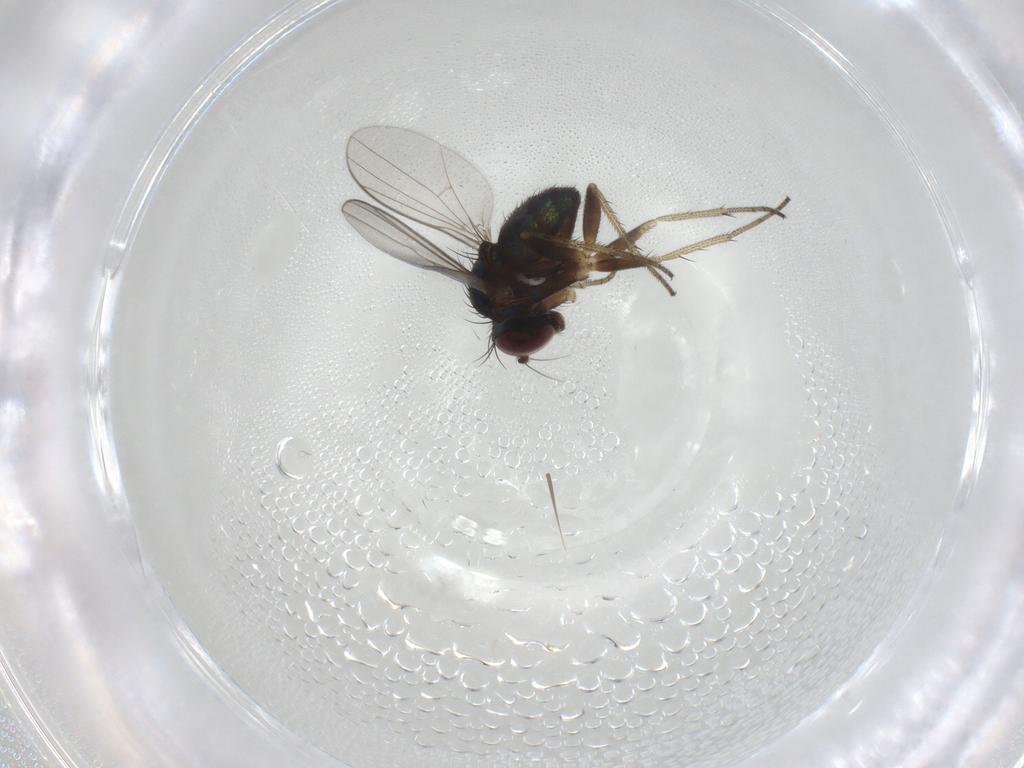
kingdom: Animalia
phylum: Arthropoda
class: Insecta
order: Diptera
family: Dolichopodidae
